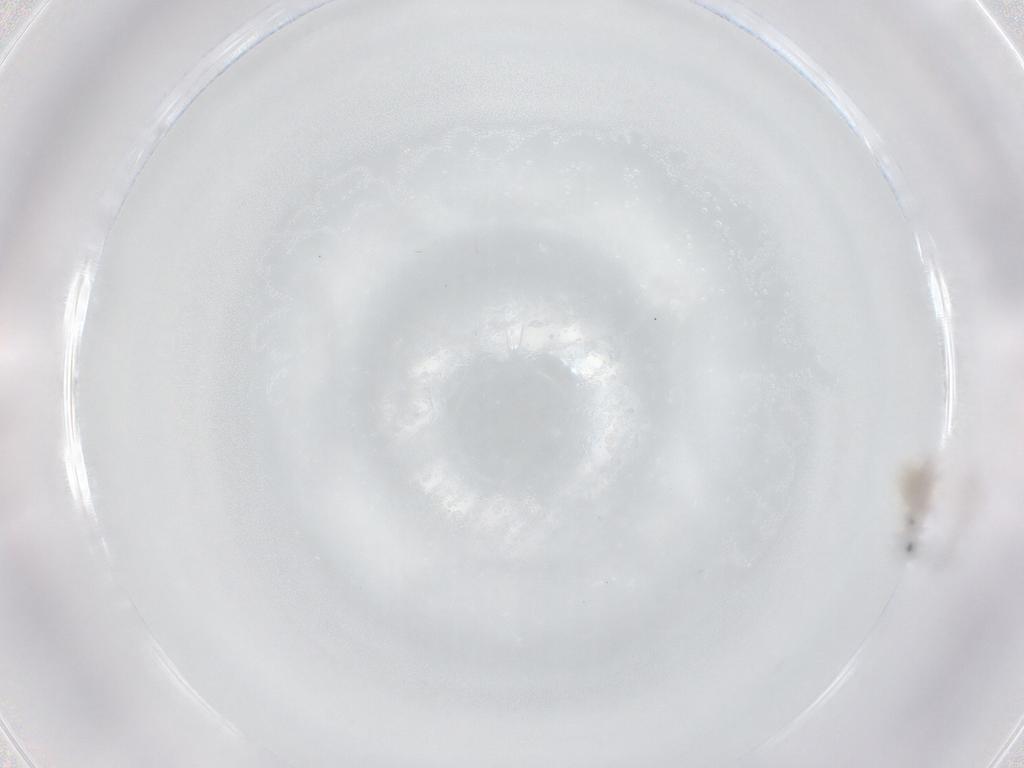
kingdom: Animalia
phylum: Arthropoda
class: Insecta
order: Diptera
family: Sciaridae
